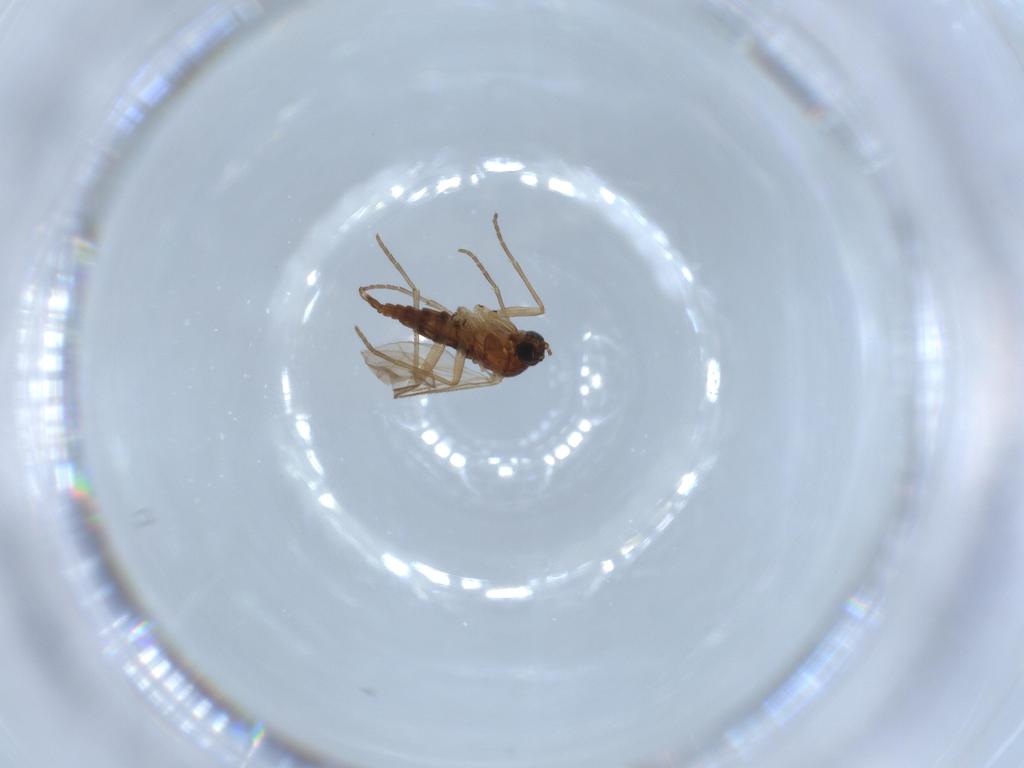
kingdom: Animalia
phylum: Arthropoda
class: Insecta
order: Diptera
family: Sciaridae
